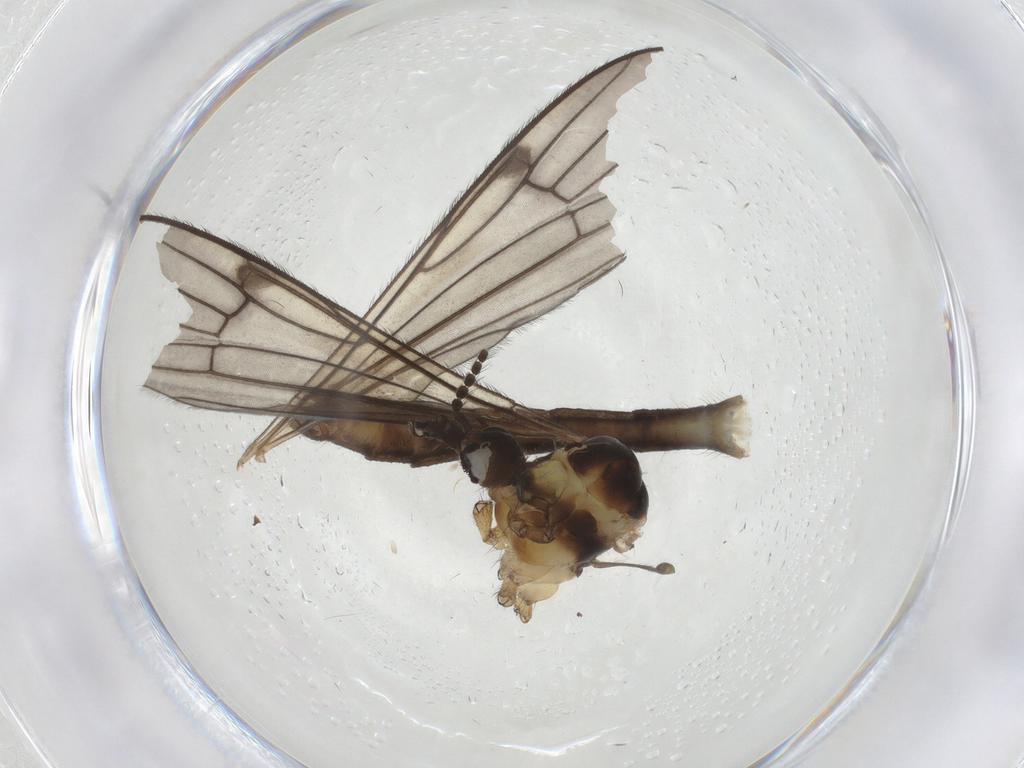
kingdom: Animalia
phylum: Arthropoda
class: Insecta
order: Diptera
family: Limoniidae
